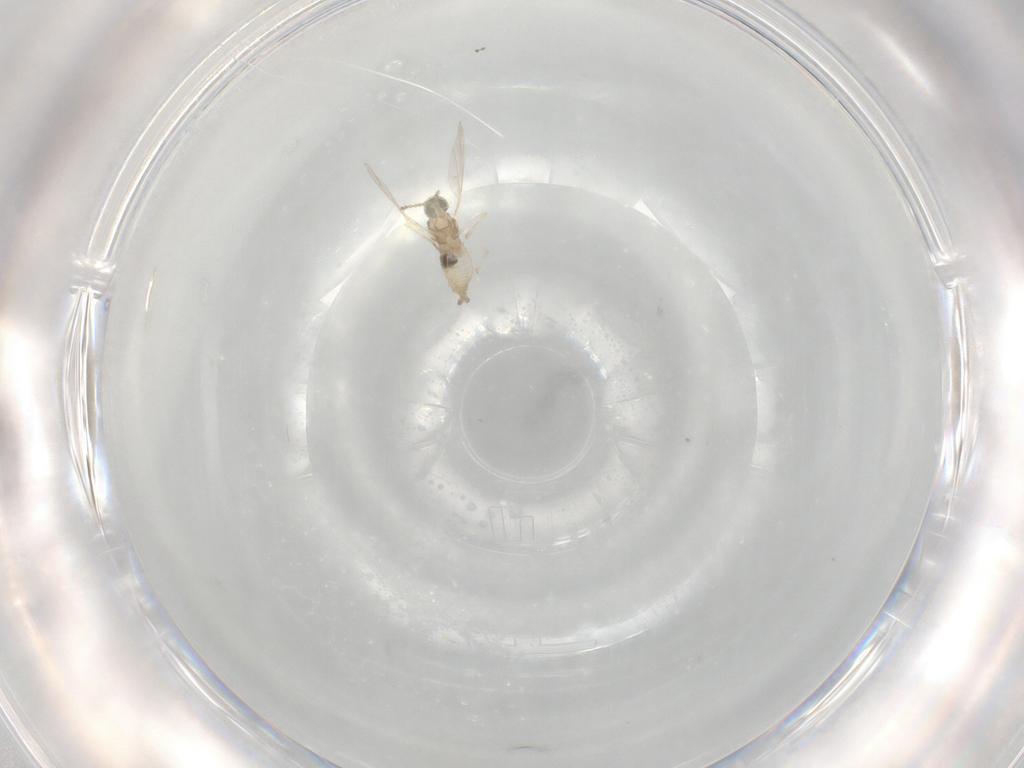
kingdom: Animalia
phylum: Arthropoda
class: Insecta
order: Diptera
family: Cecidomyiidae
